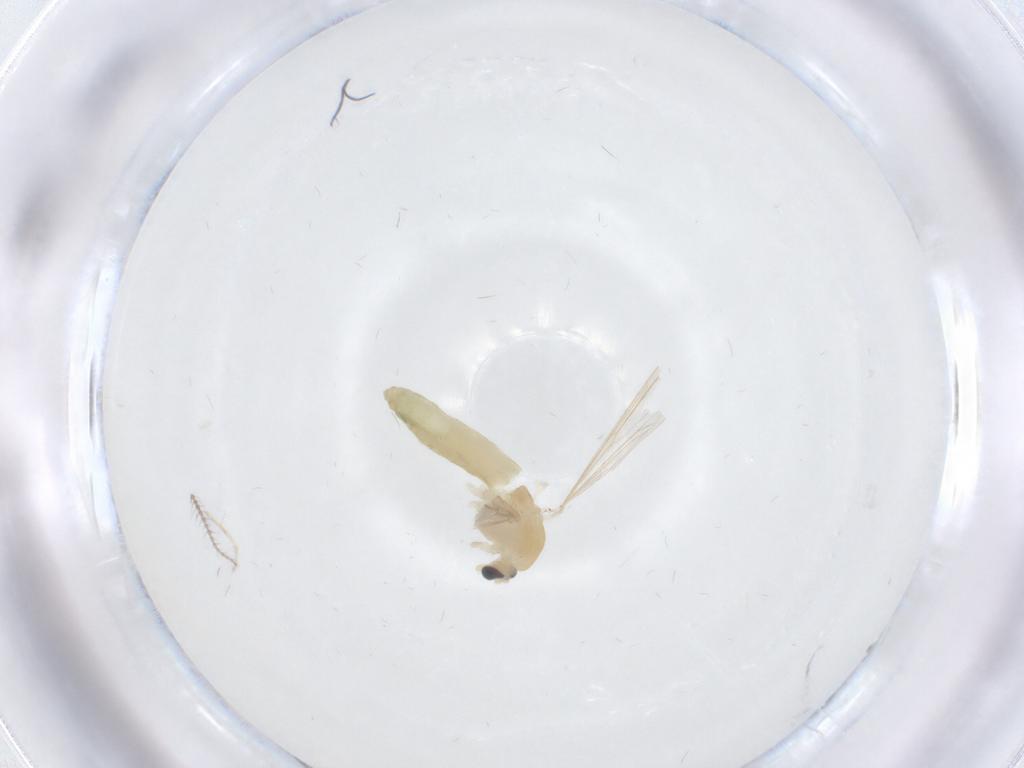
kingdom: Animalia
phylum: Arthropoda
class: Insecta
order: Diptera
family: Chironomidae
